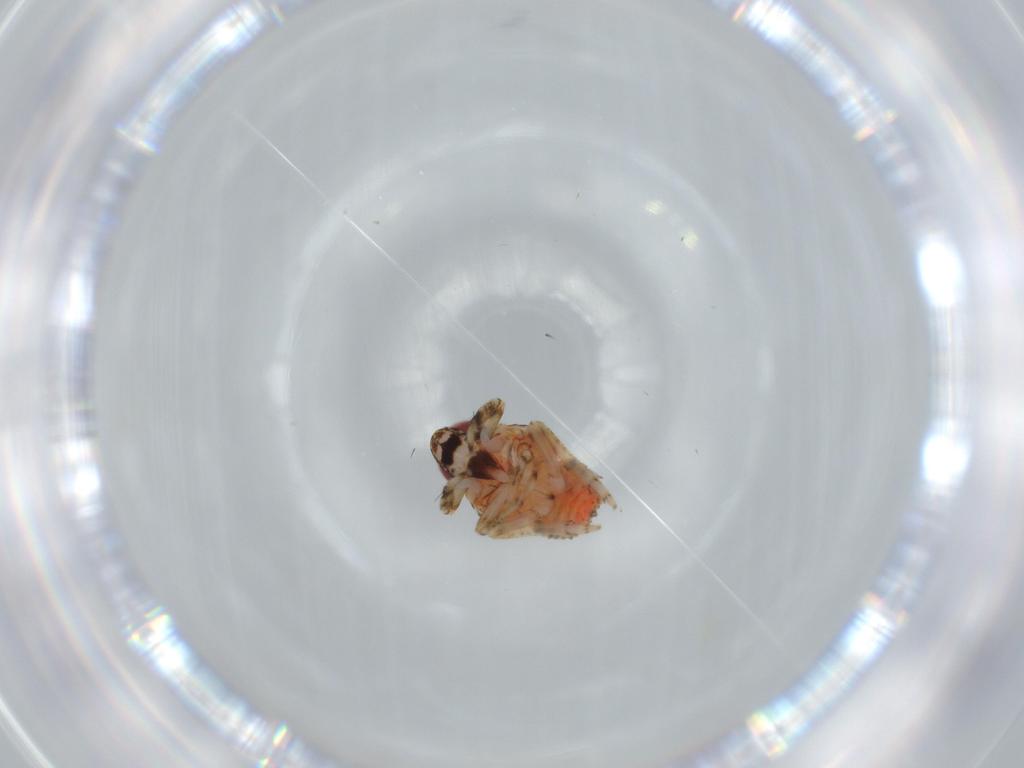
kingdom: Animalia
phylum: Arthropoda
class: Insecta
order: Hemiptera
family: Issidae
